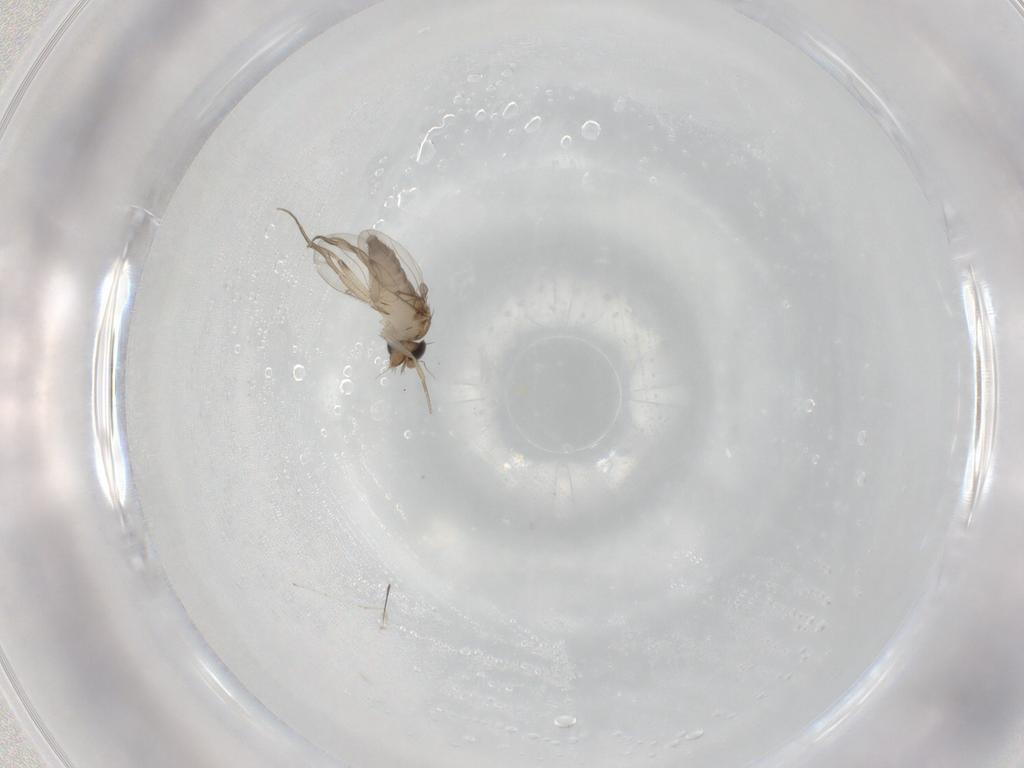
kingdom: Animalia
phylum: Arthropoda
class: Insecta
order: Diptera
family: Phoridae
